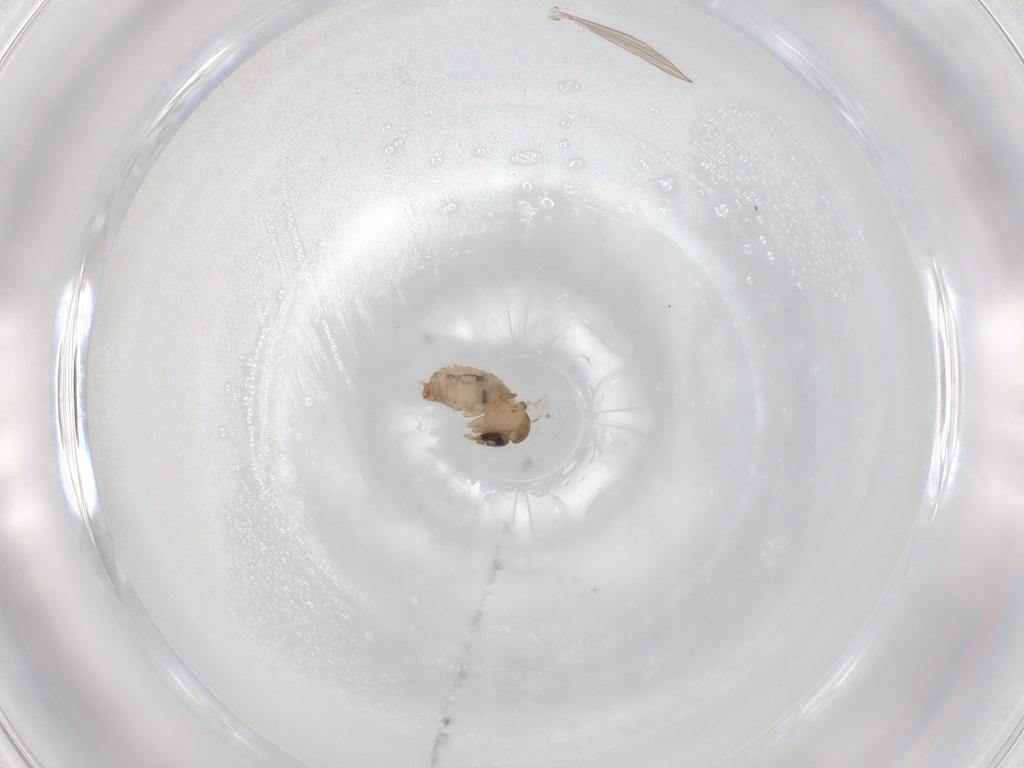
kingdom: Animalia
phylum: Arthropoda
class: Insecta
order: Diptera
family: Psychodidae
